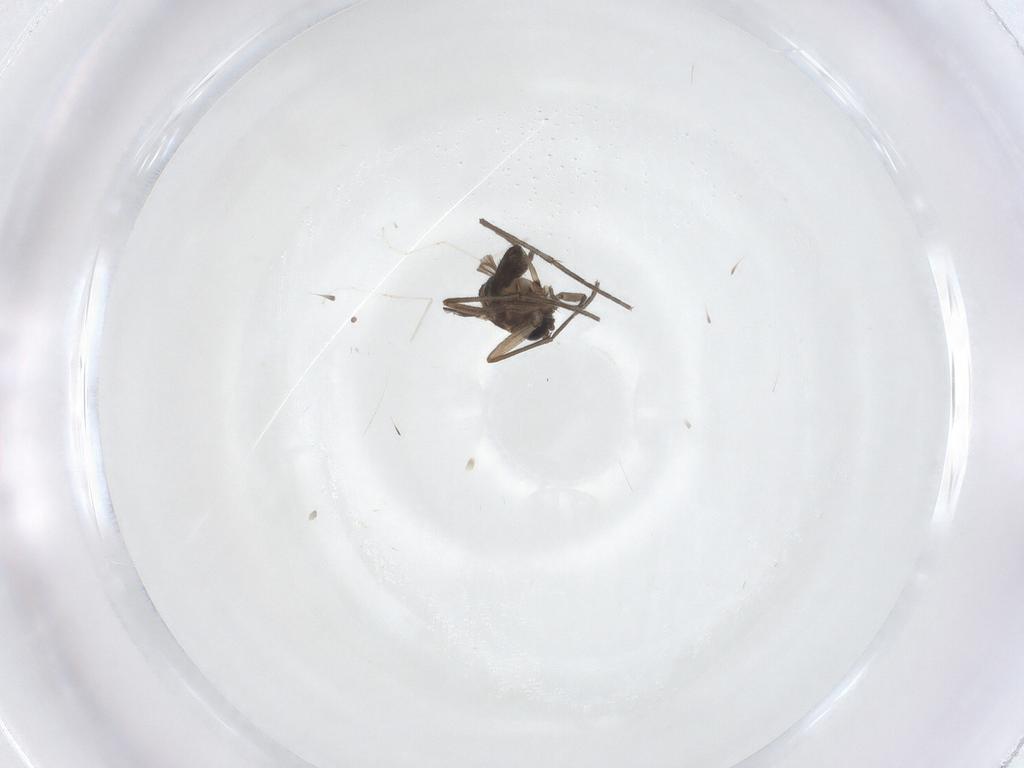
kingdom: Animalia
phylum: Arthropoda
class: Insecta
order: Diptera
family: Sciaridae
